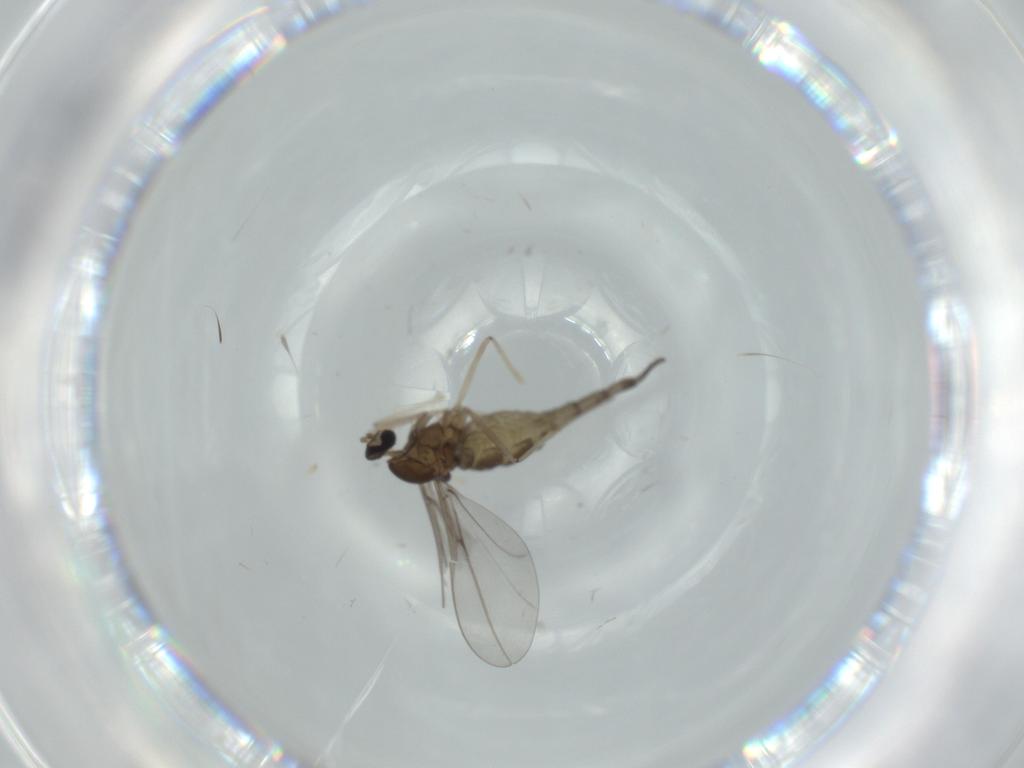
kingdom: Animalia
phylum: Arthropoda
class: Insecta
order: Diptera
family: Cecidomyiidae
